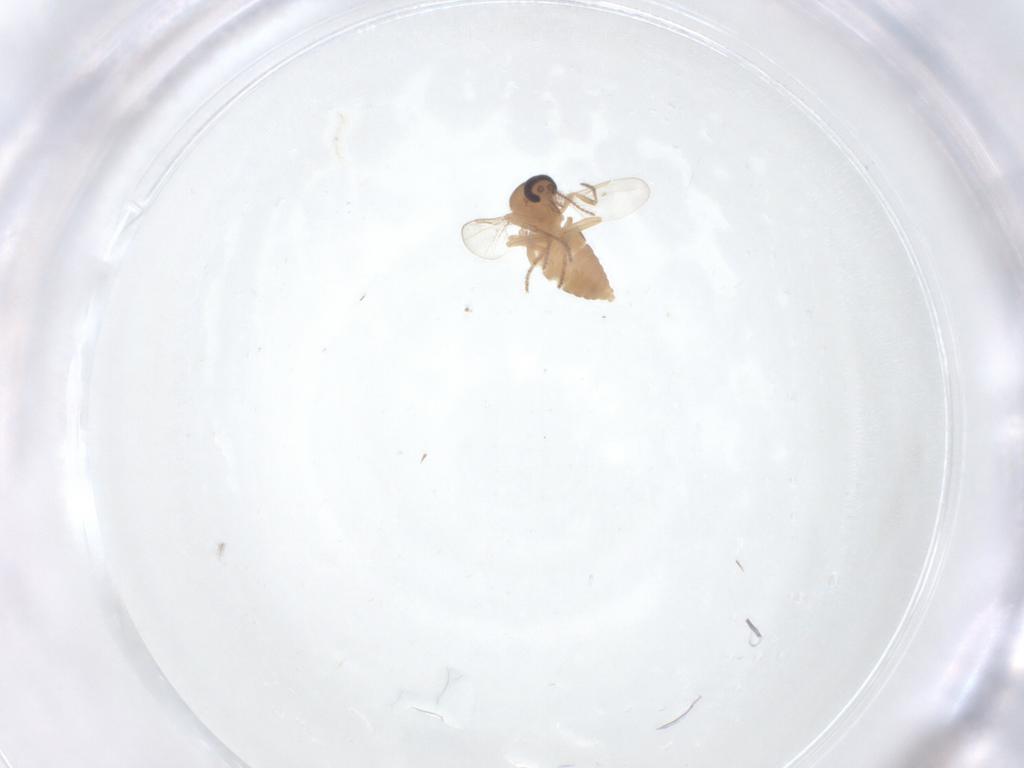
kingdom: Animalia
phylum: Arthropoda
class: Insecta
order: Diptera
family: Ceratopogonidae
